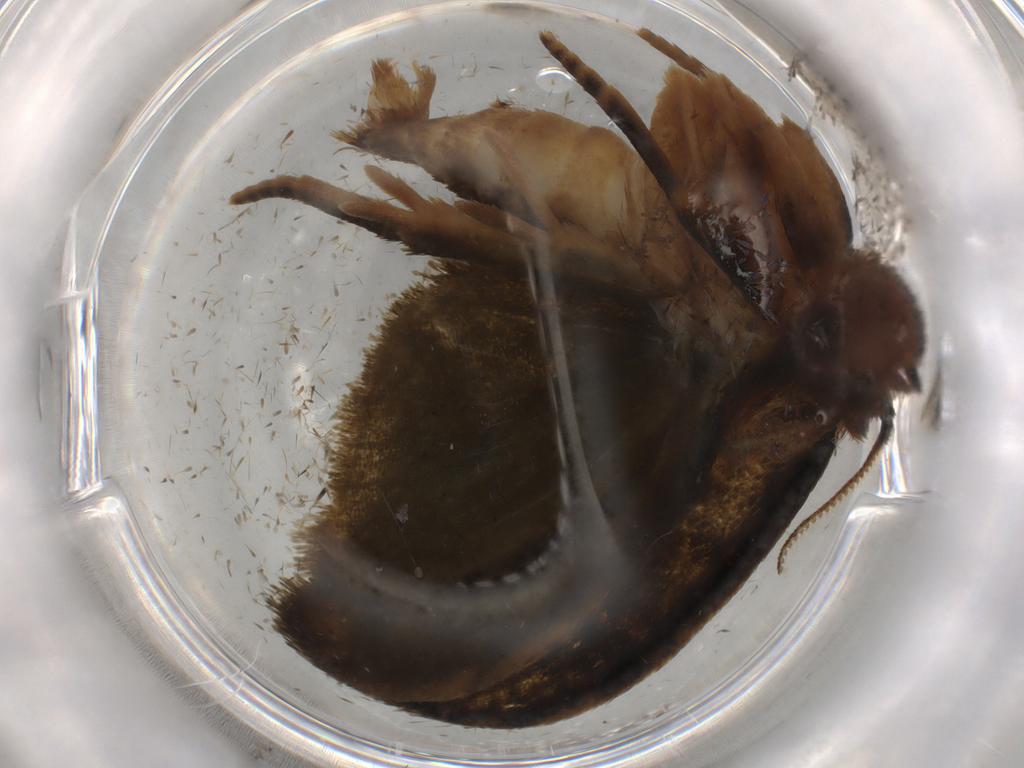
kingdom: Animalia
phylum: Arthropoda
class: Insecta
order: Lepidoptera
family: Geometridae
